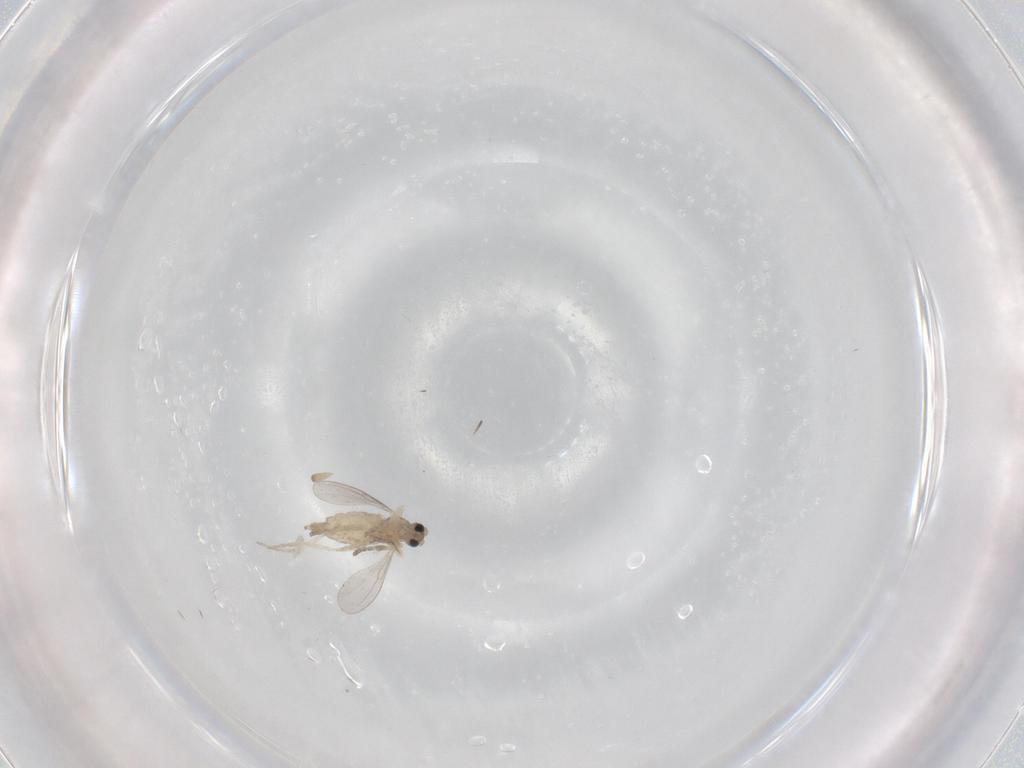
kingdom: Animalia
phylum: Arthropoda
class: Insecta
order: Diptera
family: Cecidomyiidae
